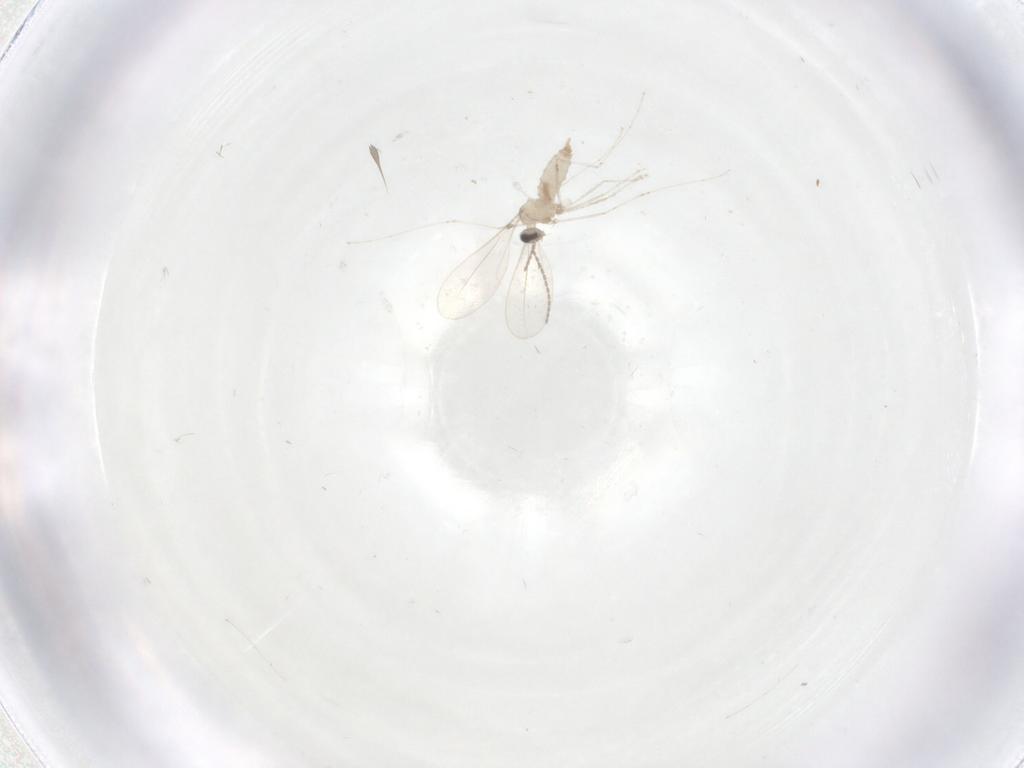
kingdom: Animalia
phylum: Arthropoda
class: Insecta
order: Diptera
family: Cecidomyiidae
